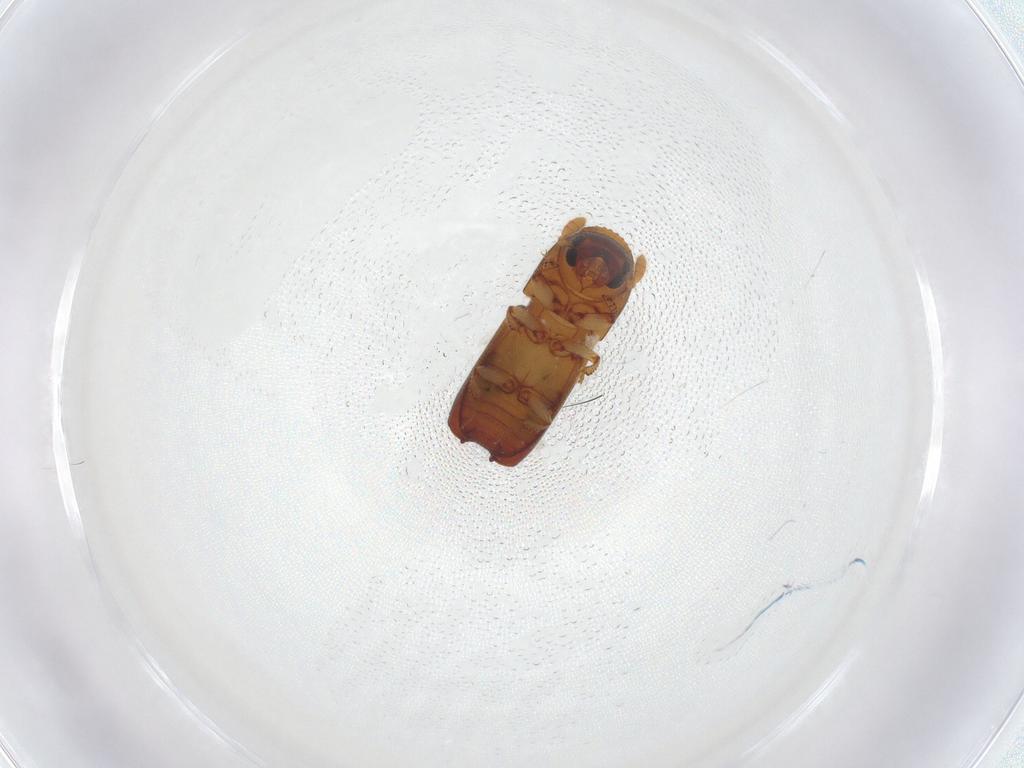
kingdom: Animalia
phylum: Arthropoda
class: Insecta
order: Coleoptera
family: Curculionidae
